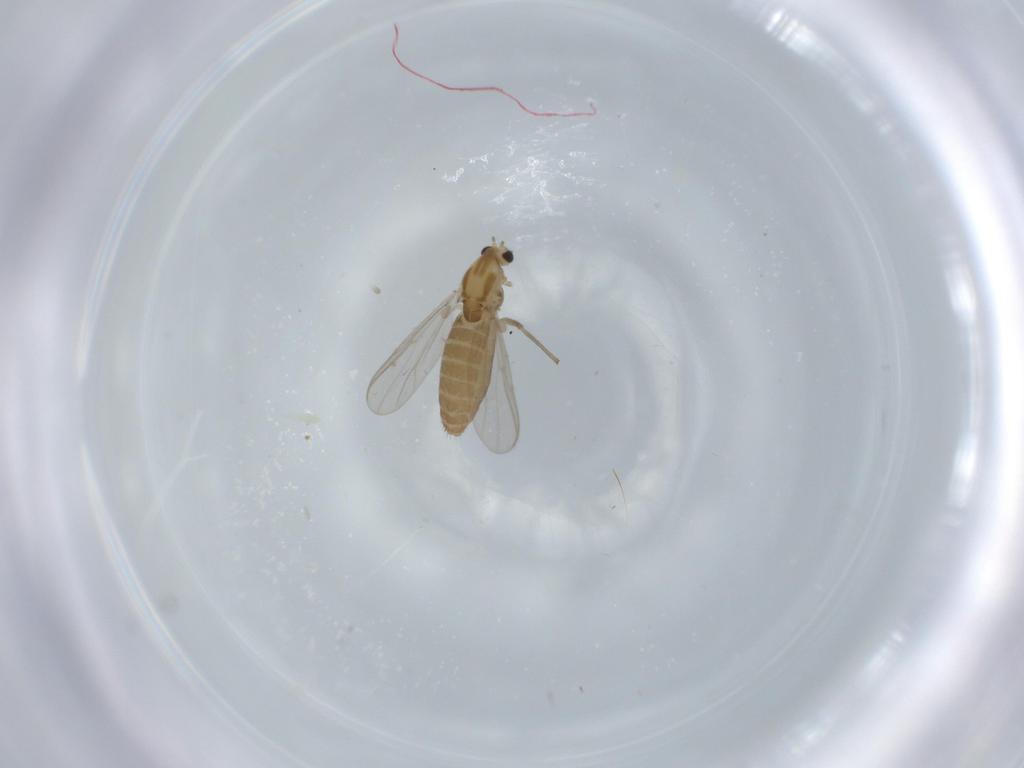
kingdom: Animalia
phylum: Arthropoda
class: Insecta
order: Diptera
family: Chironomidae
